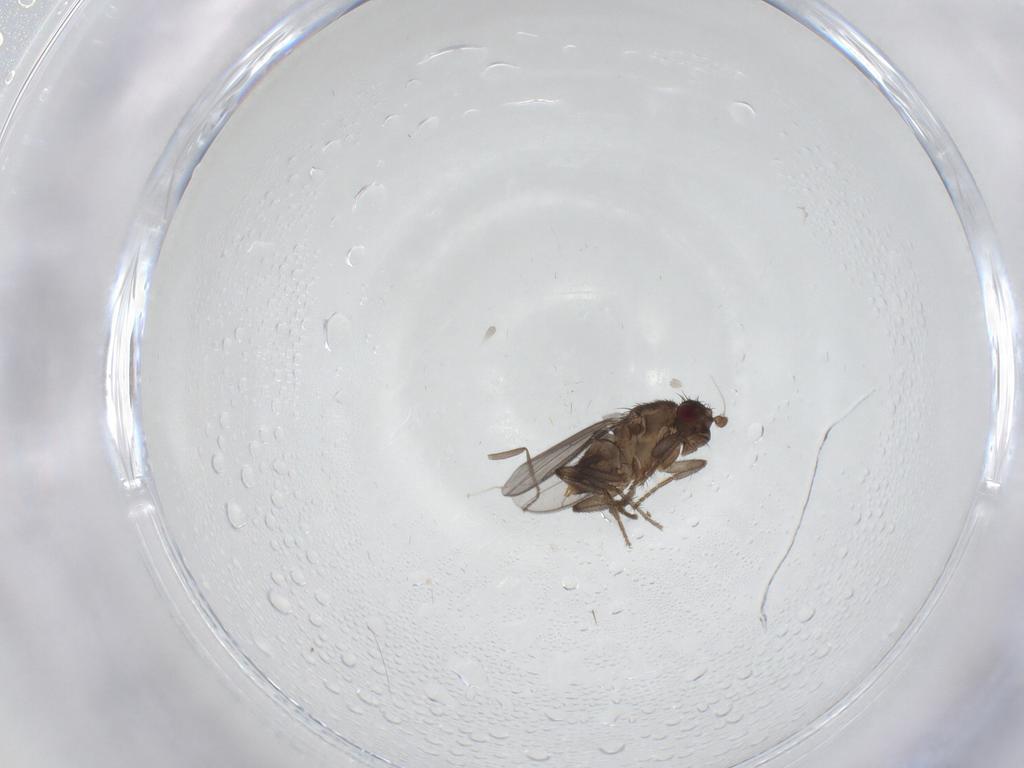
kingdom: Animalia
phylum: Arthropoda
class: Insecta
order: Diptera
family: Sphaeroceridae
